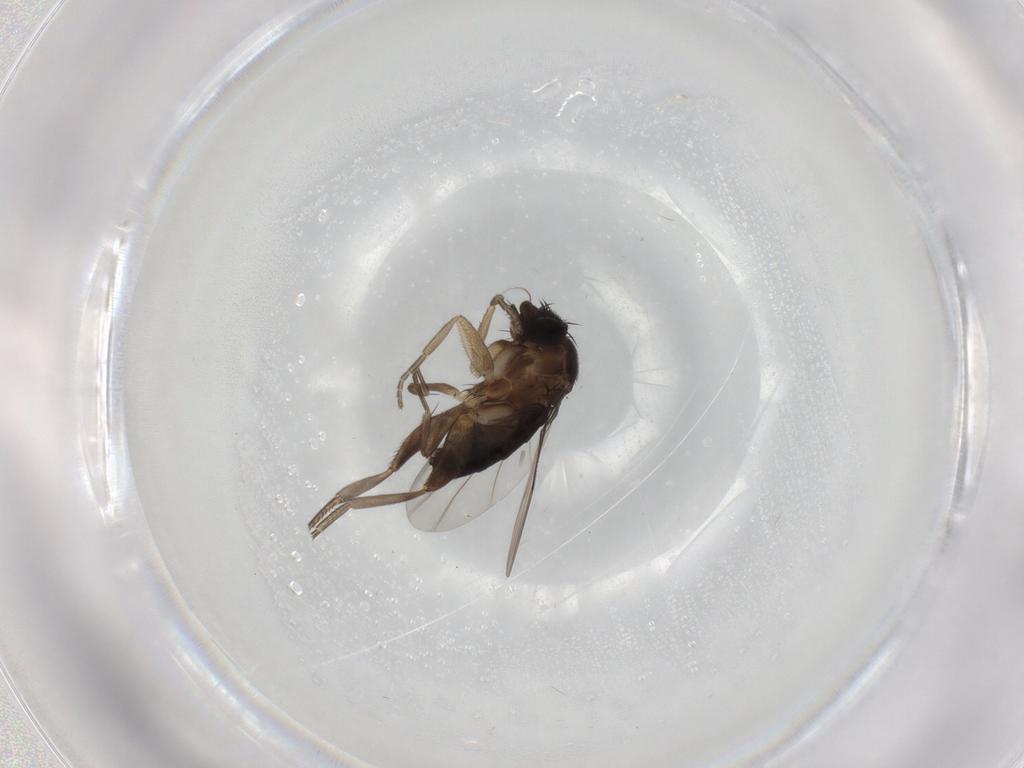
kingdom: Animalia
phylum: Arthropoda
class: Insecta
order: Diptera
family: Phoridae
